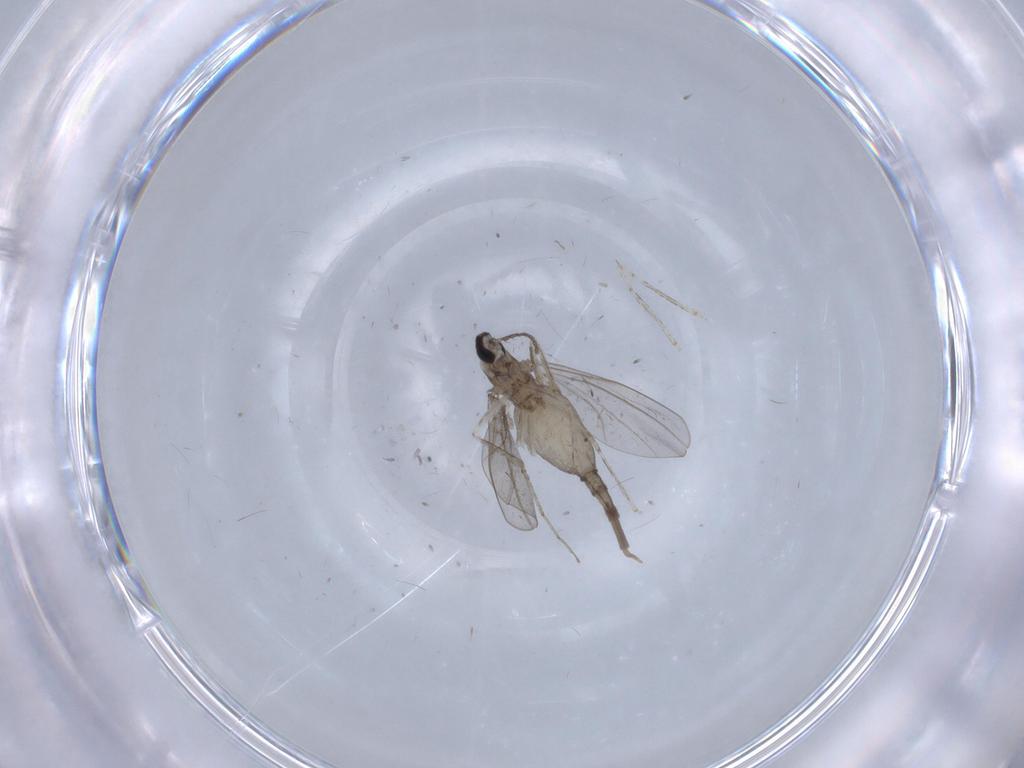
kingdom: Animalia
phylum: Arthropoda
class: Insecta
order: Diptera
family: Cecidomyiidae
